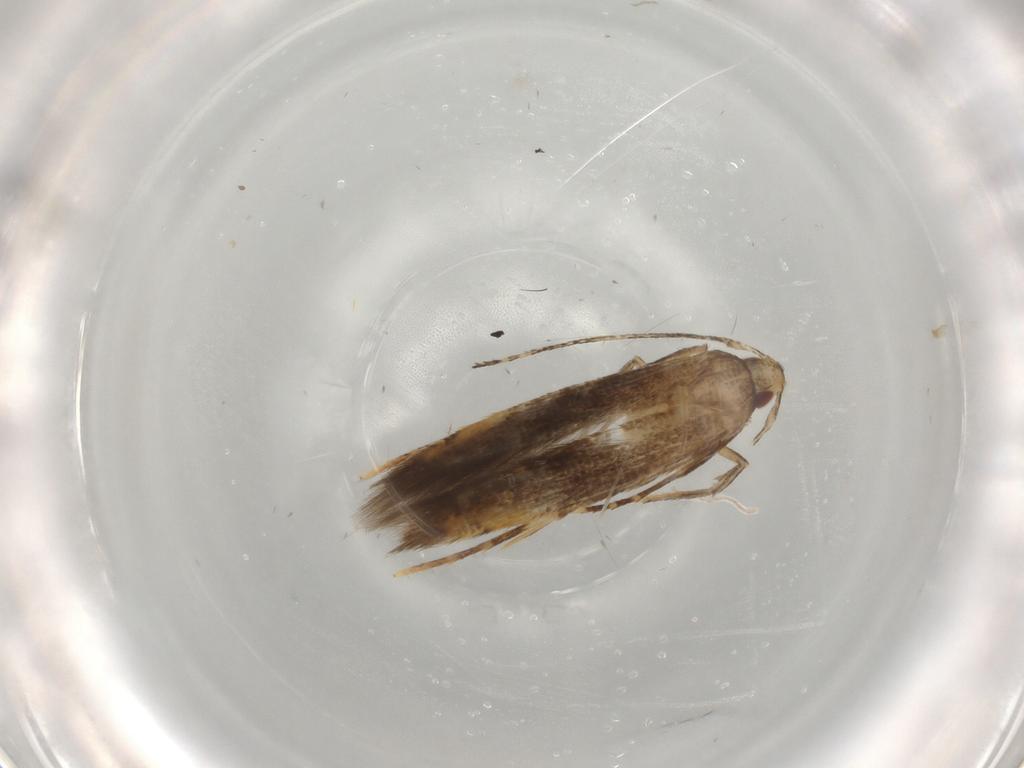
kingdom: Animalia
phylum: Arthropoda
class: Insecta
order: Lepidoptera
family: Gelechiidae
